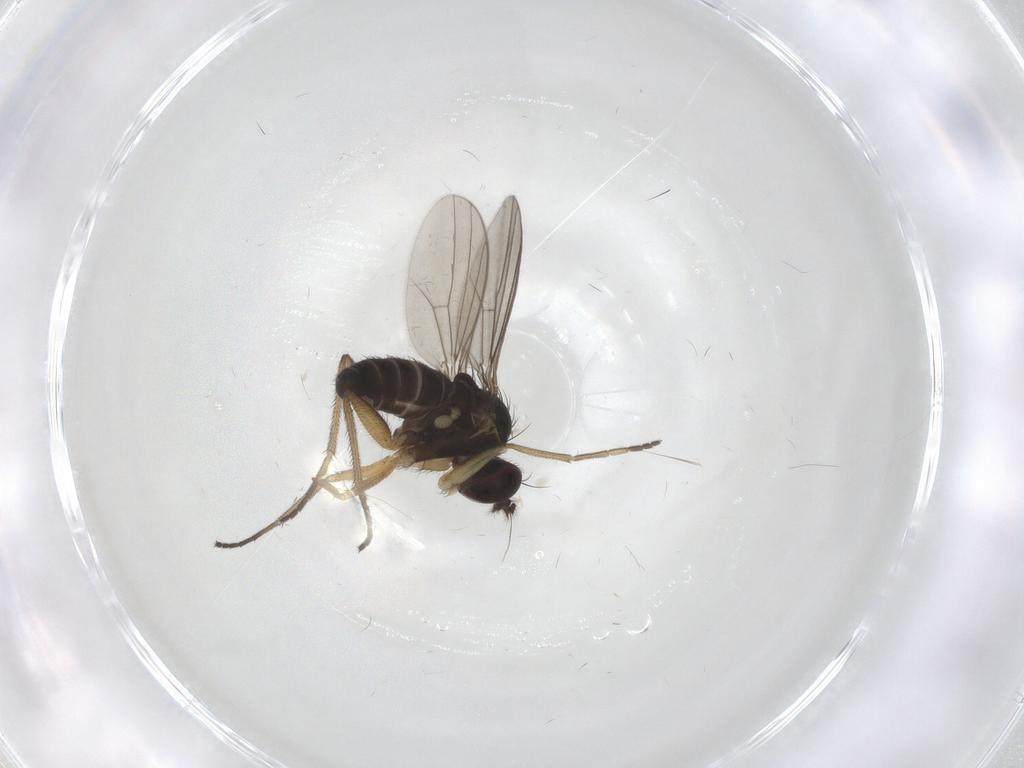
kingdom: Animalia
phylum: Arthropoda
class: Insecta
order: Diptera
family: Dolichopodidae
